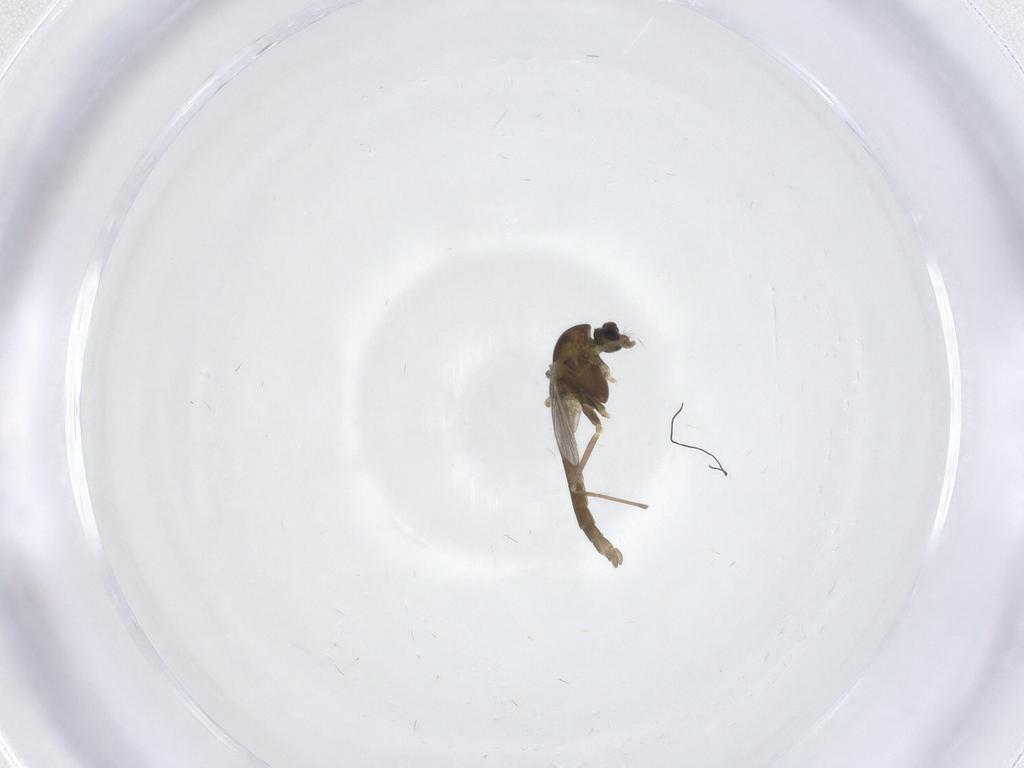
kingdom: Animalia
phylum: Arthropoda
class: Insecta
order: Diptera
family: Chironomidae
